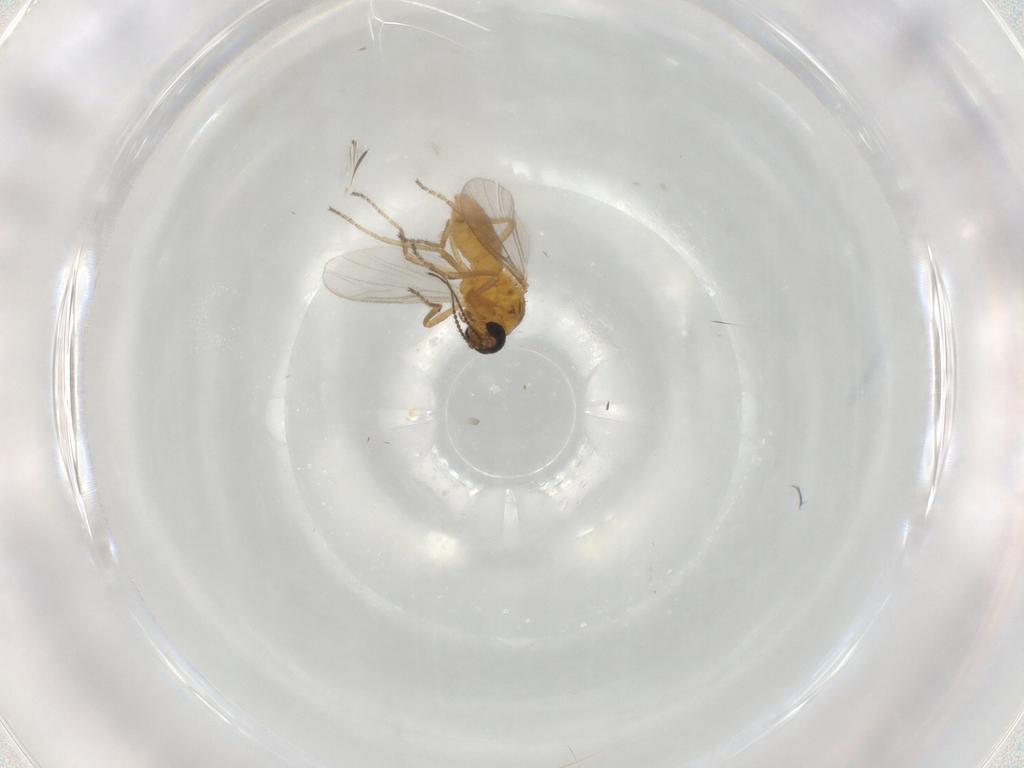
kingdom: Animalia
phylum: Arthropoda
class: Insecta
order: Diptera
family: Ceratopogonidae
